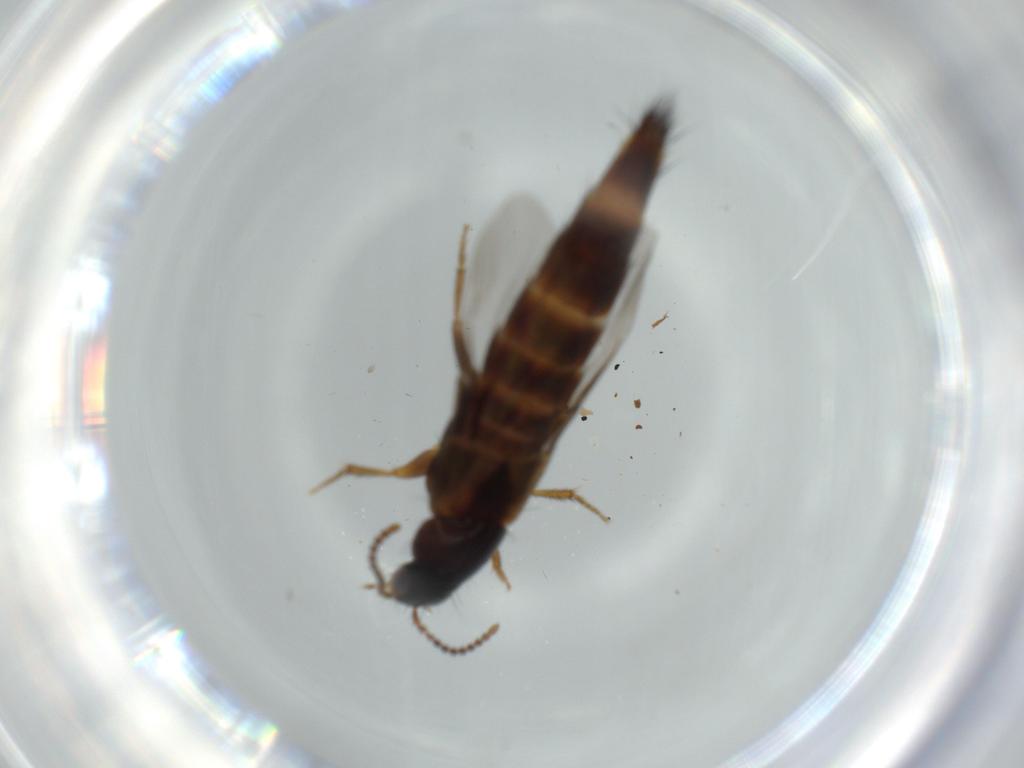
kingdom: Animalia
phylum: Arthropoda
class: Insecta
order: Coleoptera
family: Staphylinidae
